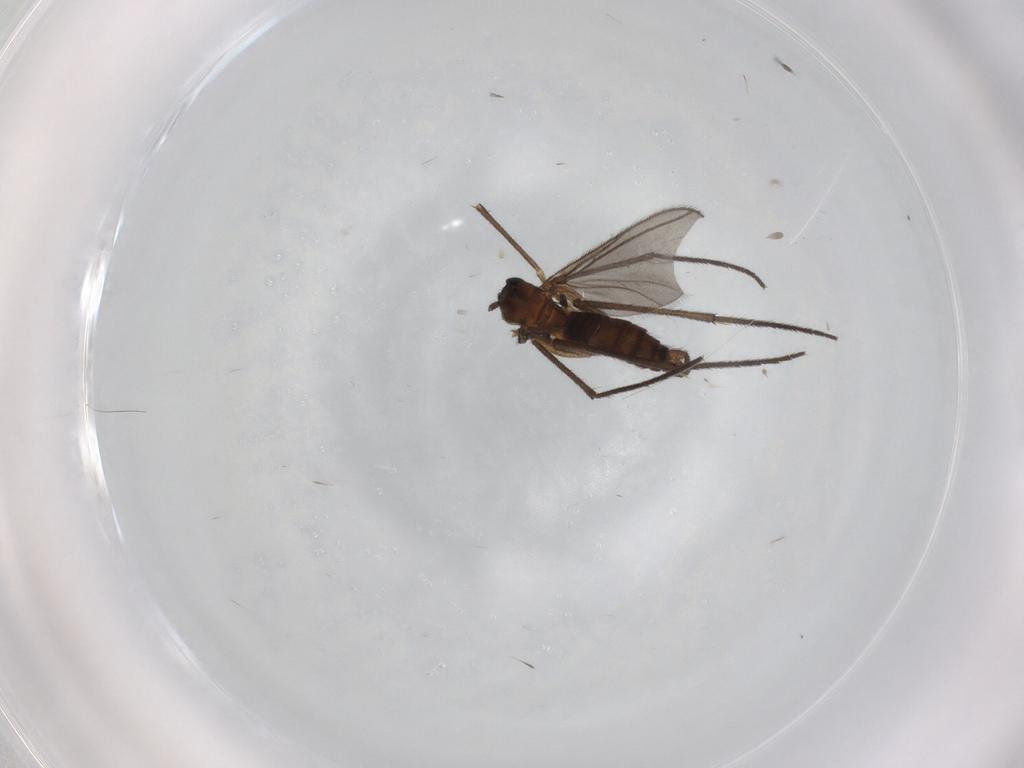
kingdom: Animalia
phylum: Arthropoda
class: Insecta
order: Diptera
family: Sciaridae
